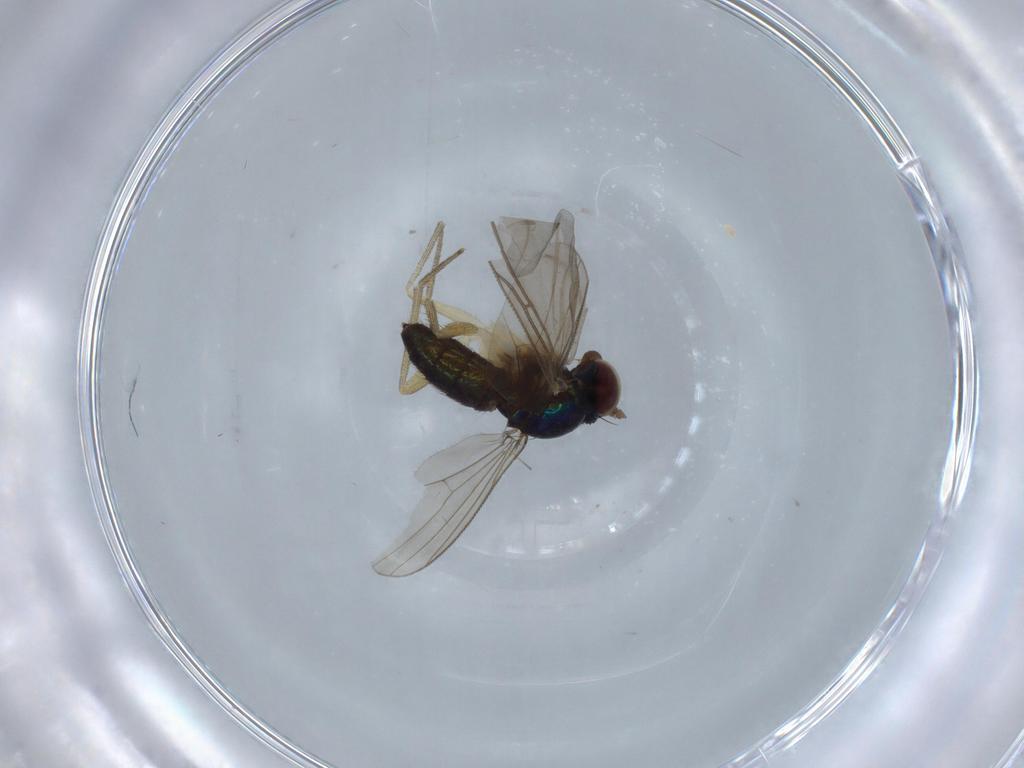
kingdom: Animalia
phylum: Arthropoda
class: Insecta
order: Diptera
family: Dolichopodidae
